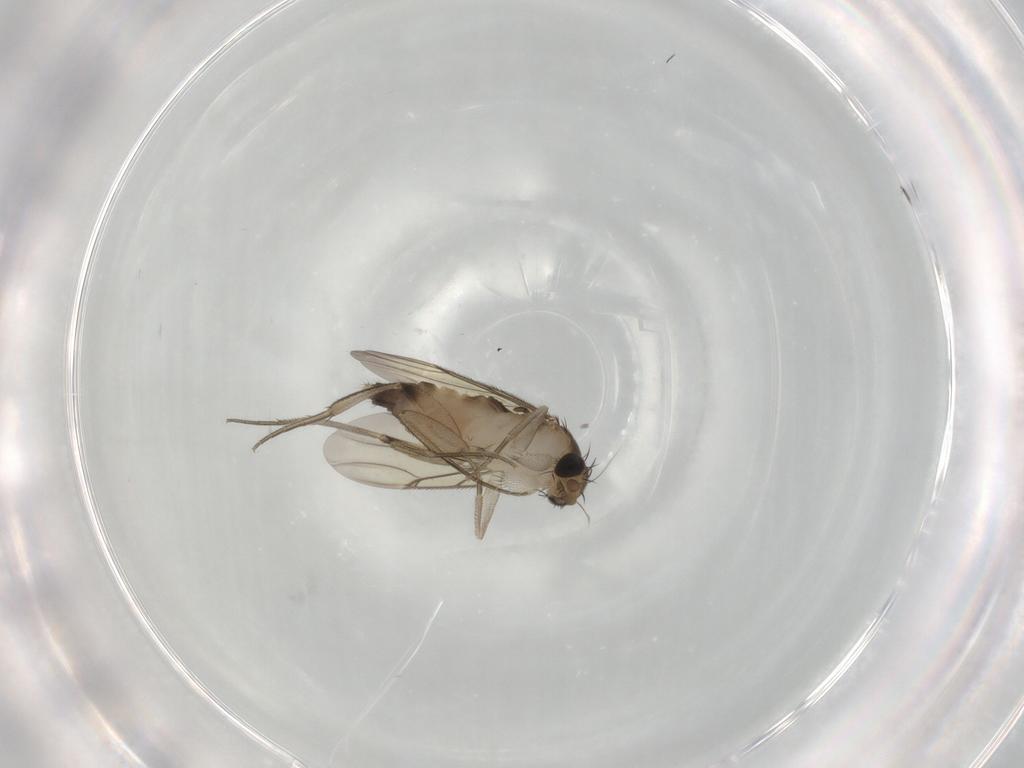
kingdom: Animalia
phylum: Arthropoda
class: Insecta
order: Diptera
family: Phoridae
